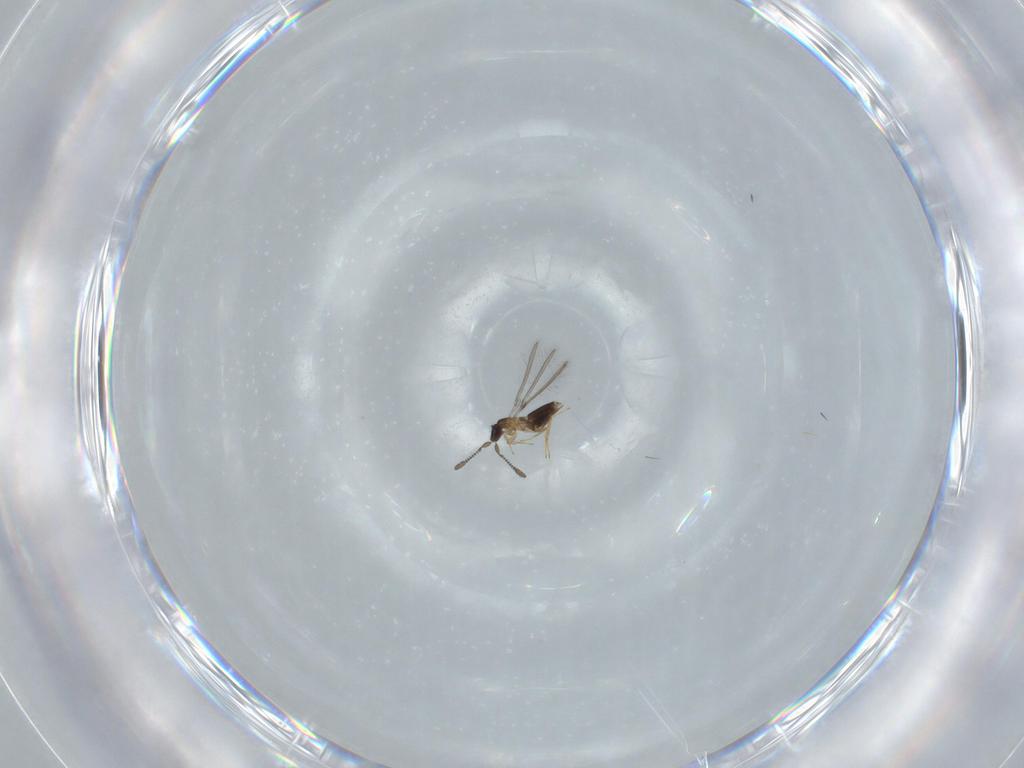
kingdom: Animalia
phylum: Arthropoda
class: Insecta
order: Hymenoptera
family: Mymaridae
